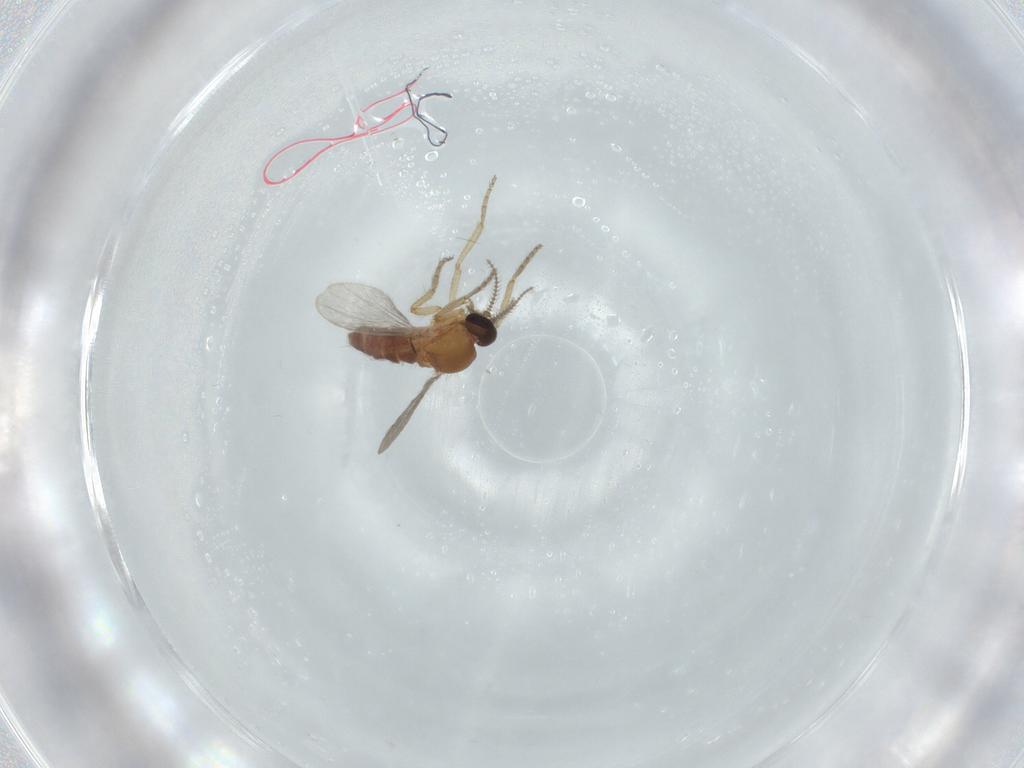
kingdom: Animalia
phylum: Arthropoda
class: Insecta
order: Diptera
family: Ceratopogonidae
